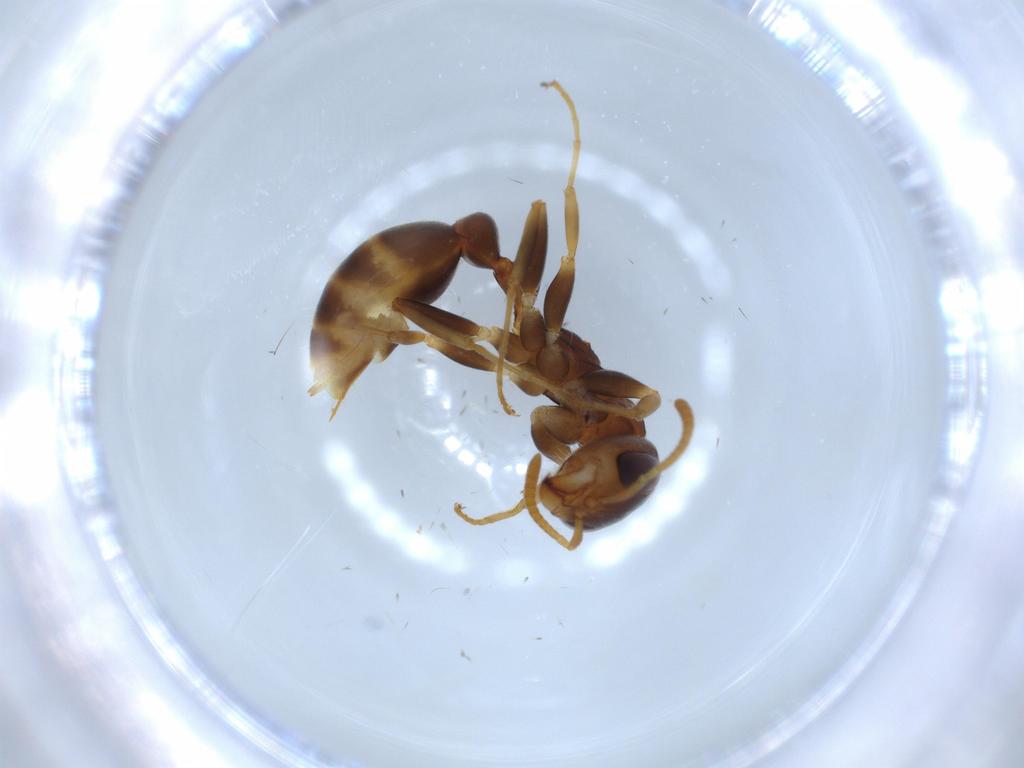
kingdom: Animalia
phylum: Arthropoda
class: Insecta
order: Hymenoptera
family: Formicidae
